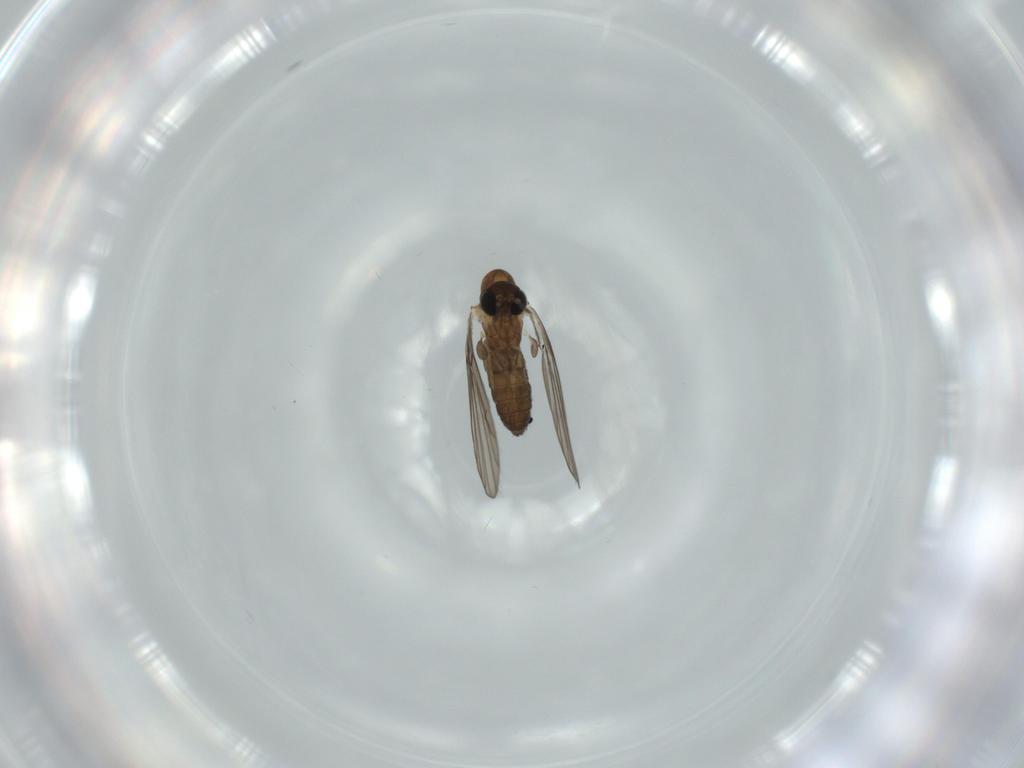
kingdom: Animalia
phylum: Arthropoda
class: Insecta
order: Diptera
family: Psychodidae
